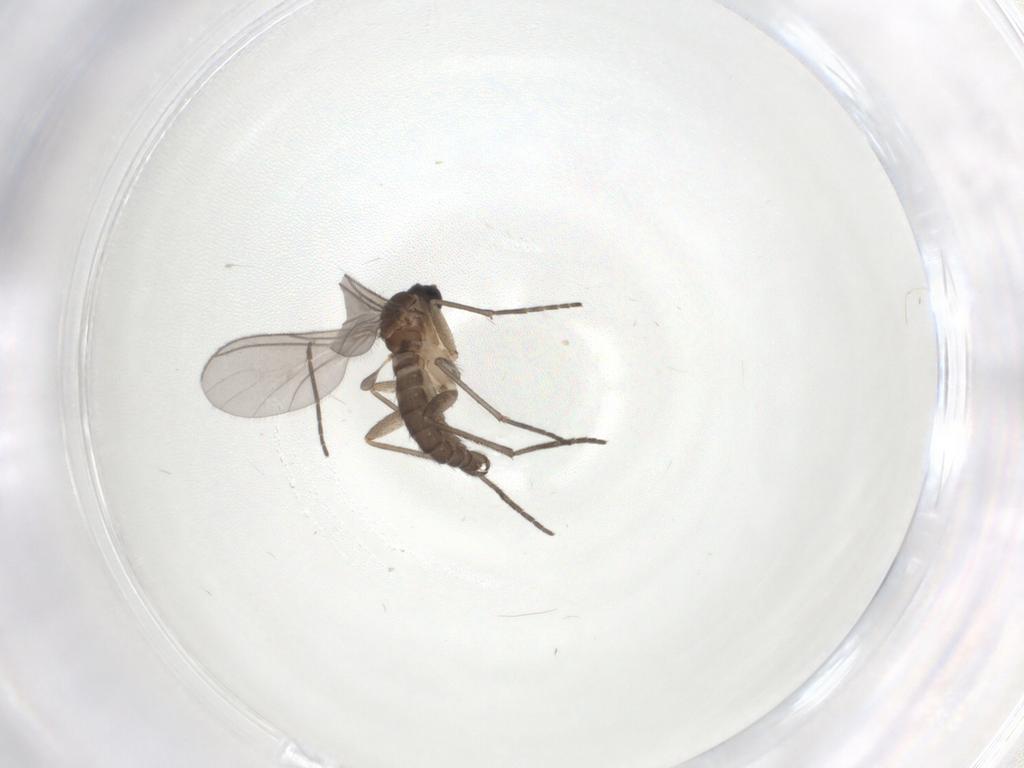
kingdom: Animalia
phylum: Arthropoda
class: Insecta
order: Diptera
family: Sciaridae
